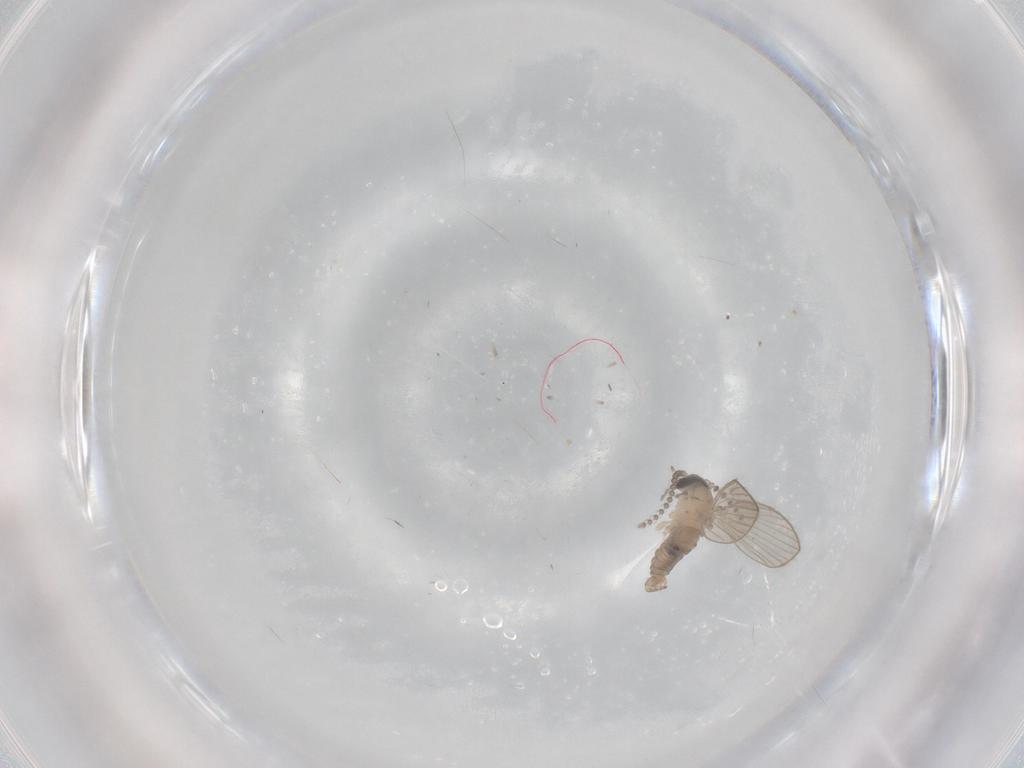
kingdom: Animalia
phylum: Arthropoda
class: Insecta
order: Diptera
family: Psychodidae
